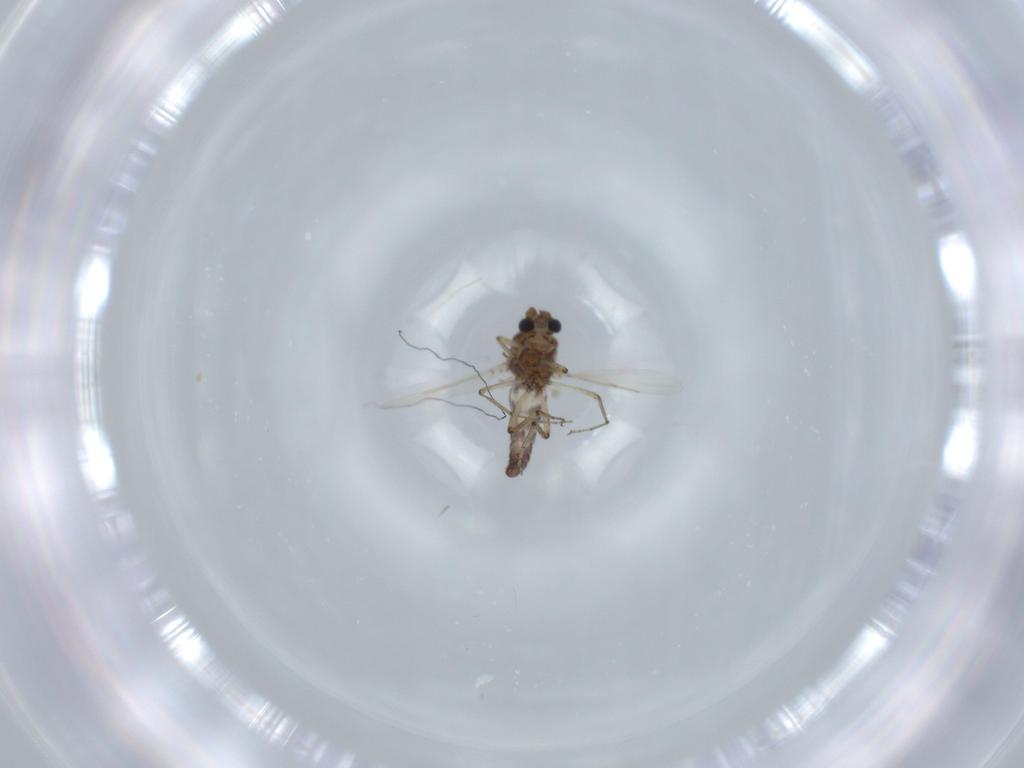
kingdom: Animalia
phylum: Arthropoda
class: Insecta
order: Diptera
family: Ceratopogonidae
